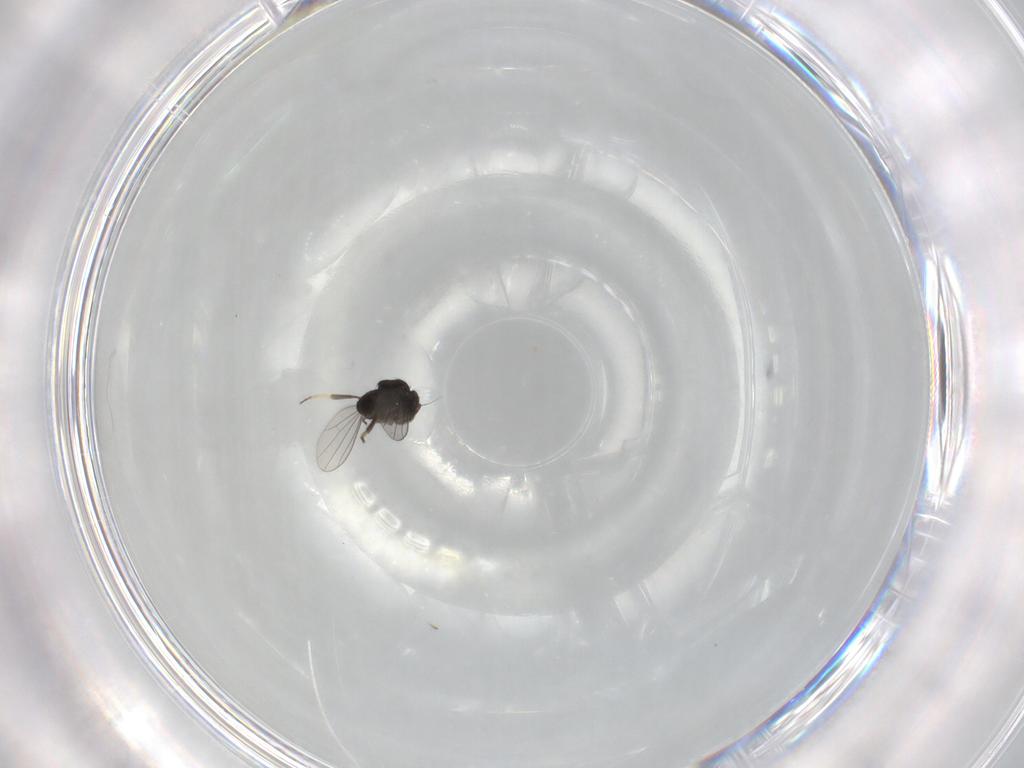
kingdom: Animalia
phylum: Arthropoda
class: Insecta
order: Diptera
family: Dolichopodidae
